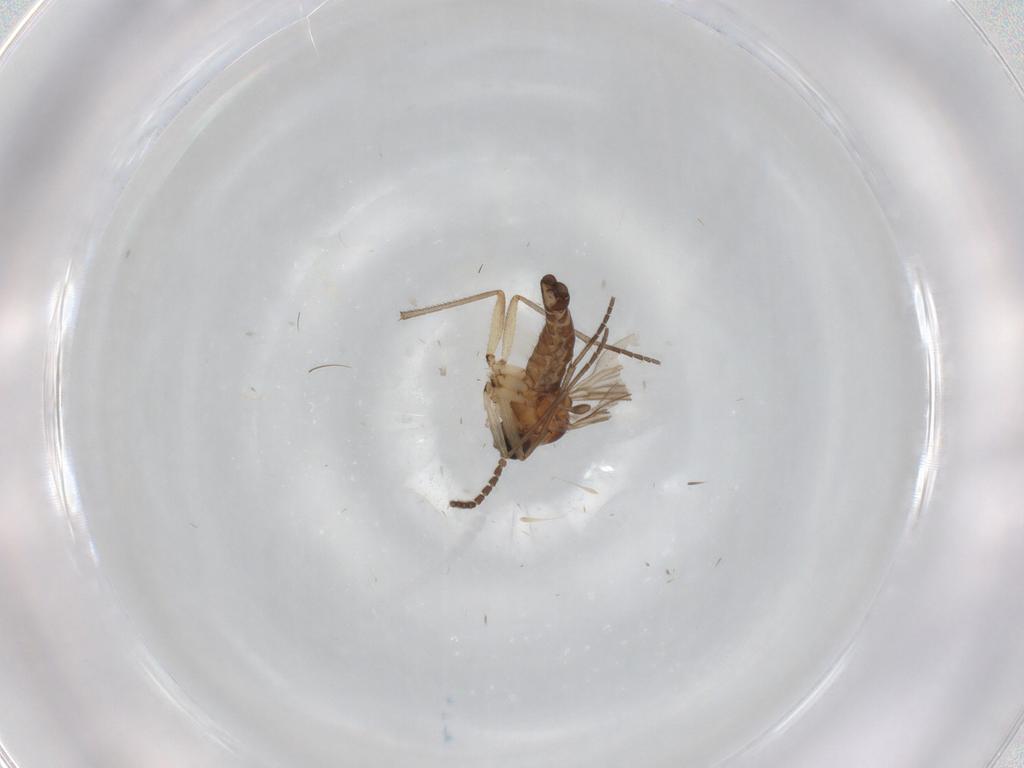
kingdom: Animalia
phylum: Arthropoda
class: Insecta
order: Diptera
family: Sciaridae
